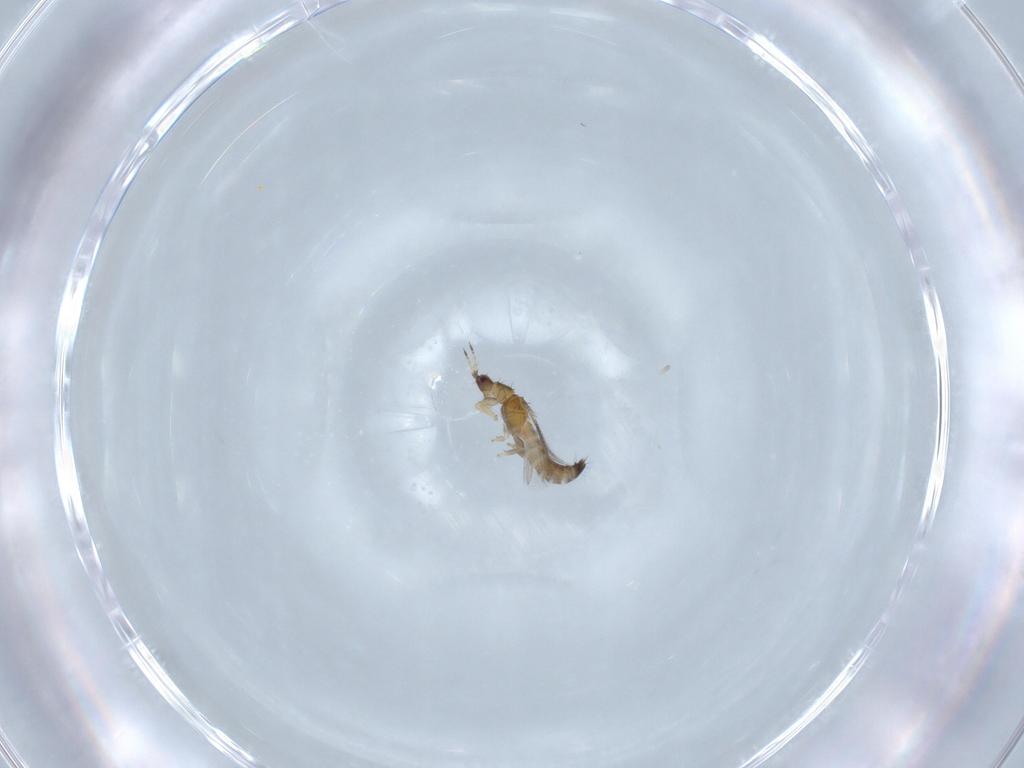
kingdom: Animalia
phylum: Arthropoda
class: Insecta
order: Thysanoptera
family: Thripidae
